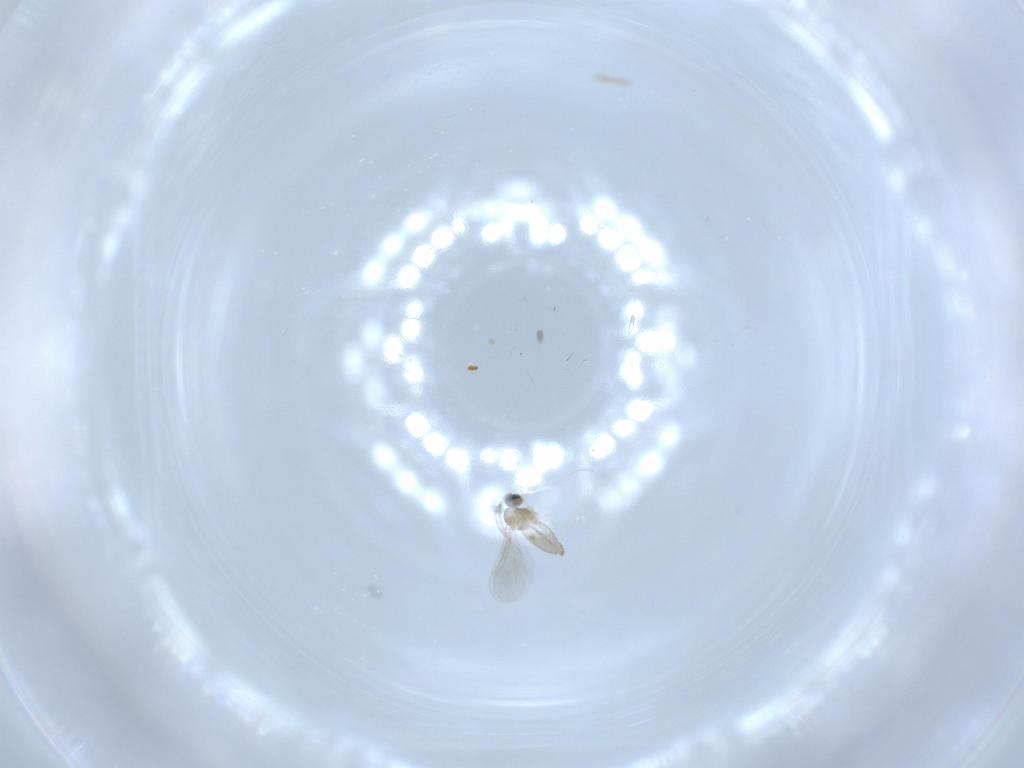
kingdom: Animalia
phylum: Arthropoda
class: Insecta
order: Diptera
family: Cecidomyiidae
